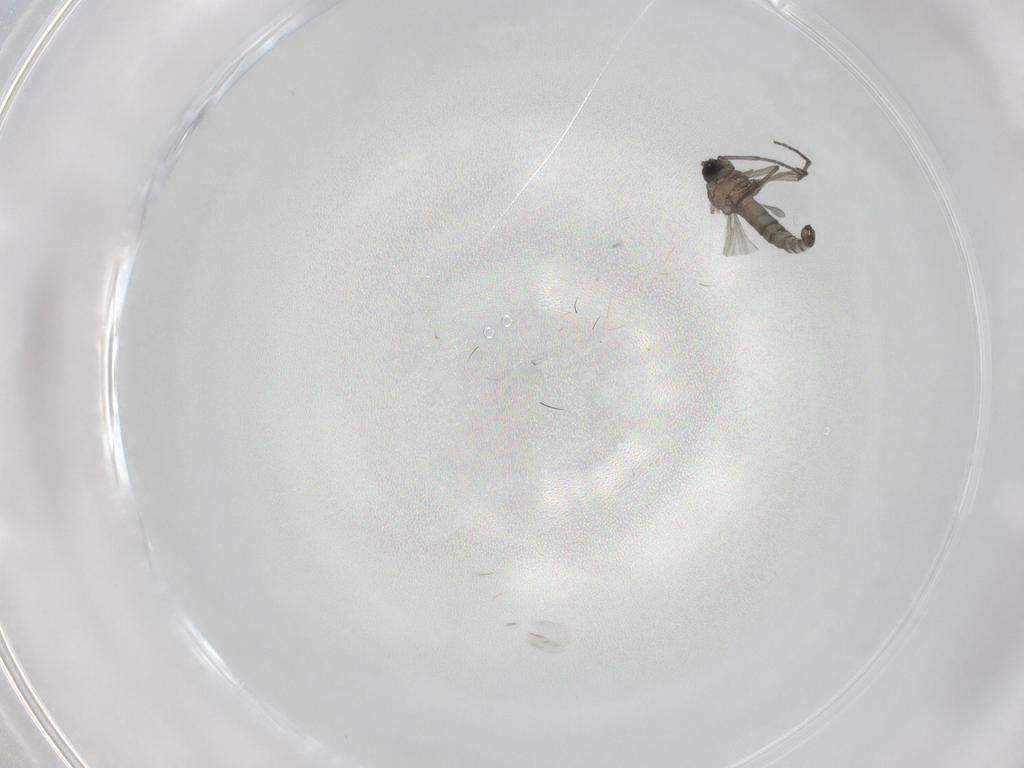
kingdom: Animalia
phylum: Arthropoda
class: Insecta
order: Diptera
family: Sciaridae
